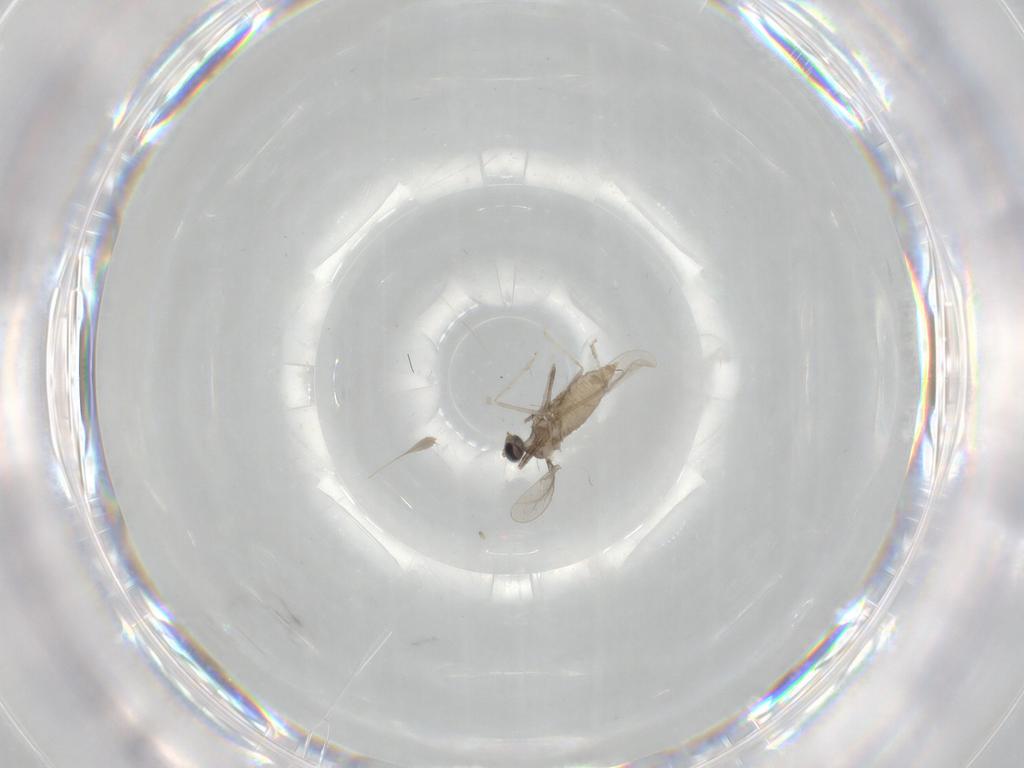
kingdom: Animalia
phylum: Arthropoda
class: Insecta
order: Diptera
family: Cecidomyiidae
